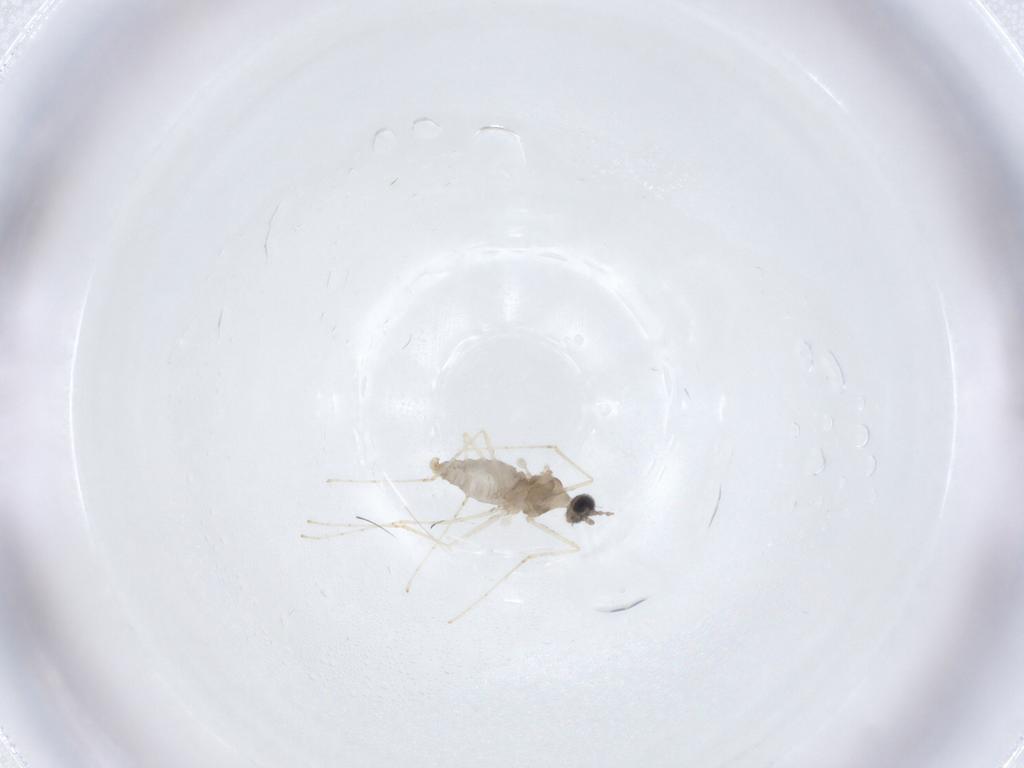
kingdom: Animalia
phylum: Arthropoda
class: Insecta
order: Diptera
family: Cecidomyiidae
